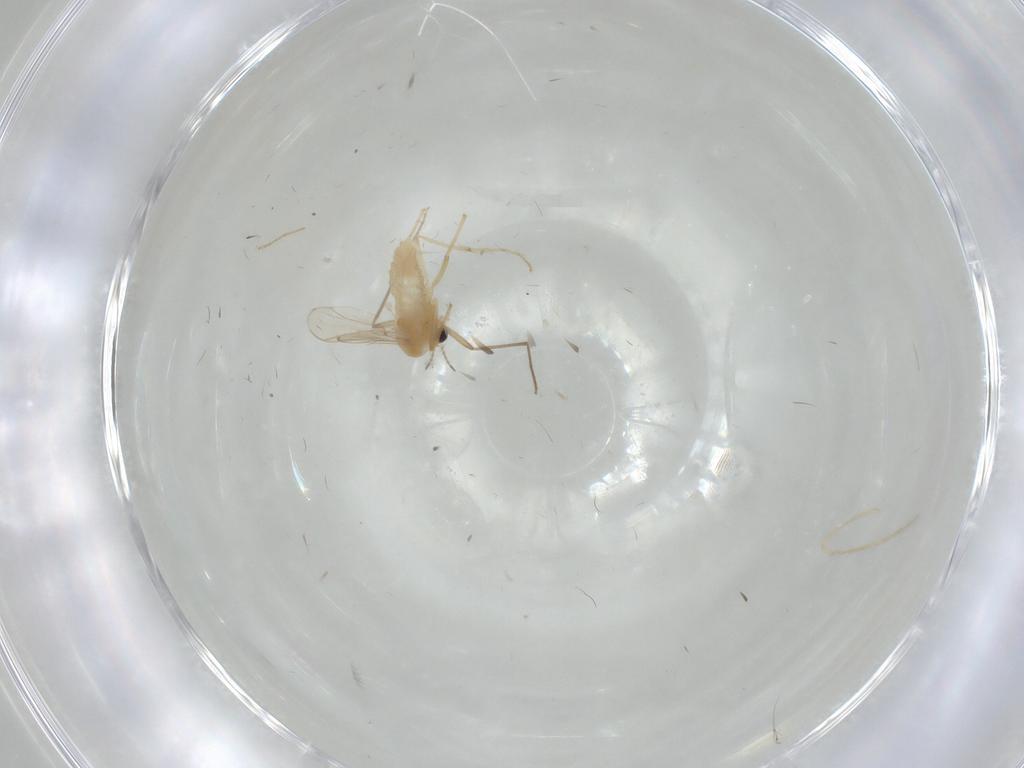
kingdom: Animalia
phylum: Arthropoda
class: Insecta
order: Diptera
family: Chironomidae
